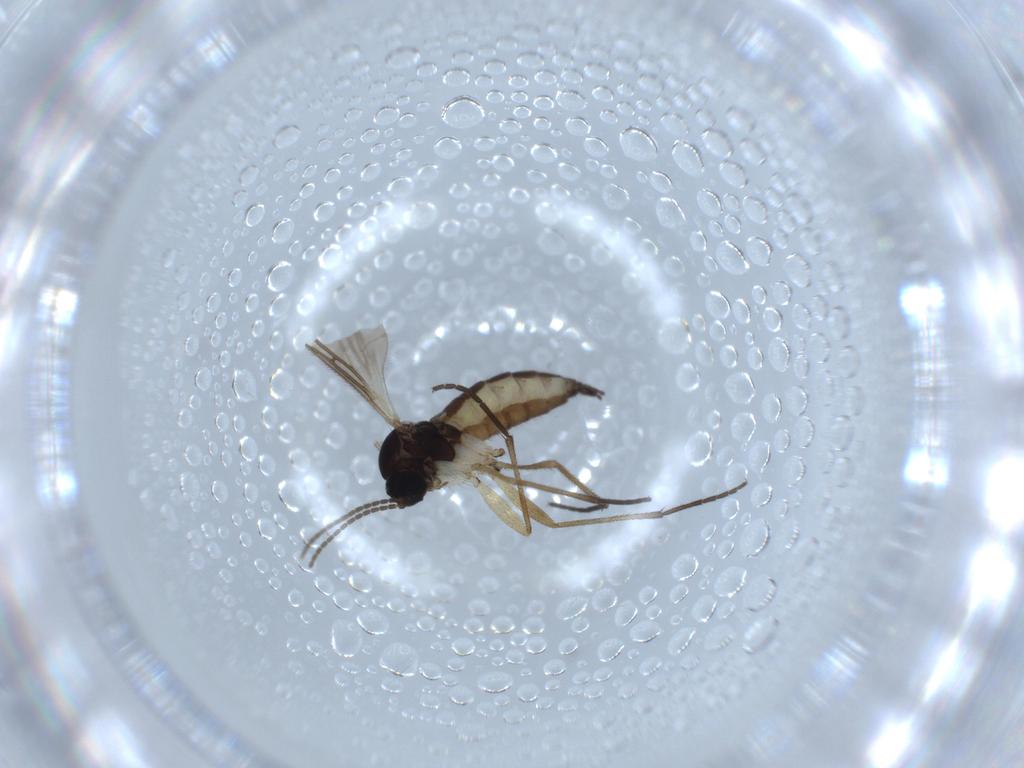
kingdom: Animalia
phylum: Arthropoda
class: Insecta
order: Diptera
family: Sciaridae
